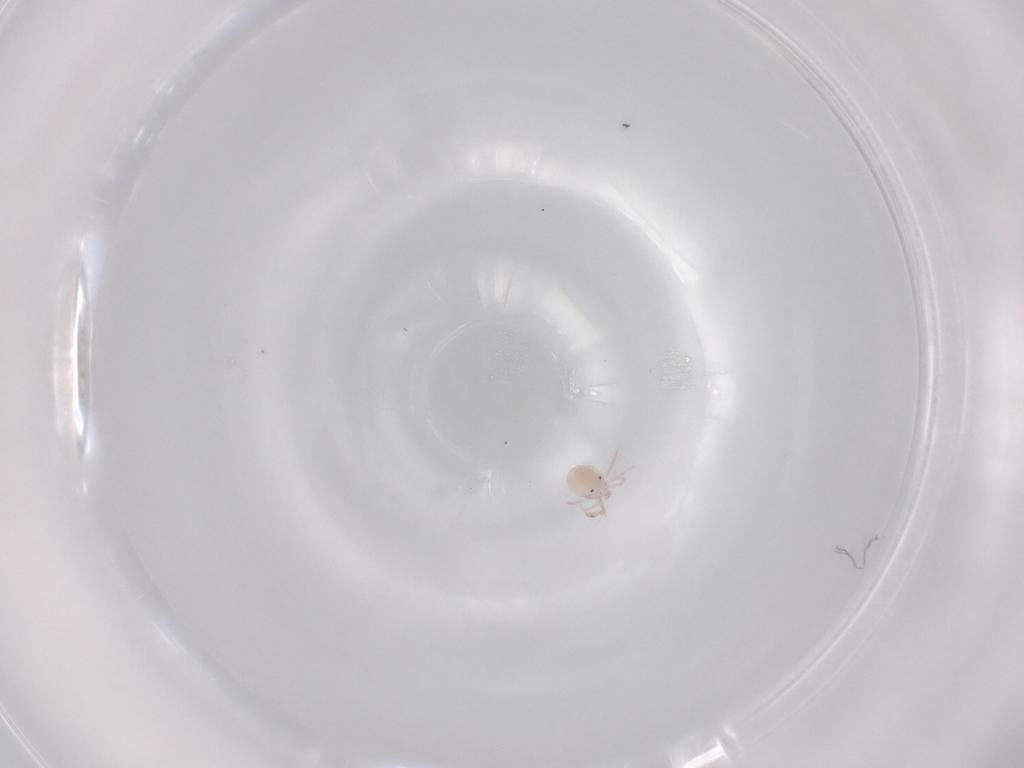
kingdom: Animalia
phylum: Arthropoda
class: Arachnida
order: Trombidiformes
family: Lebertiidae
